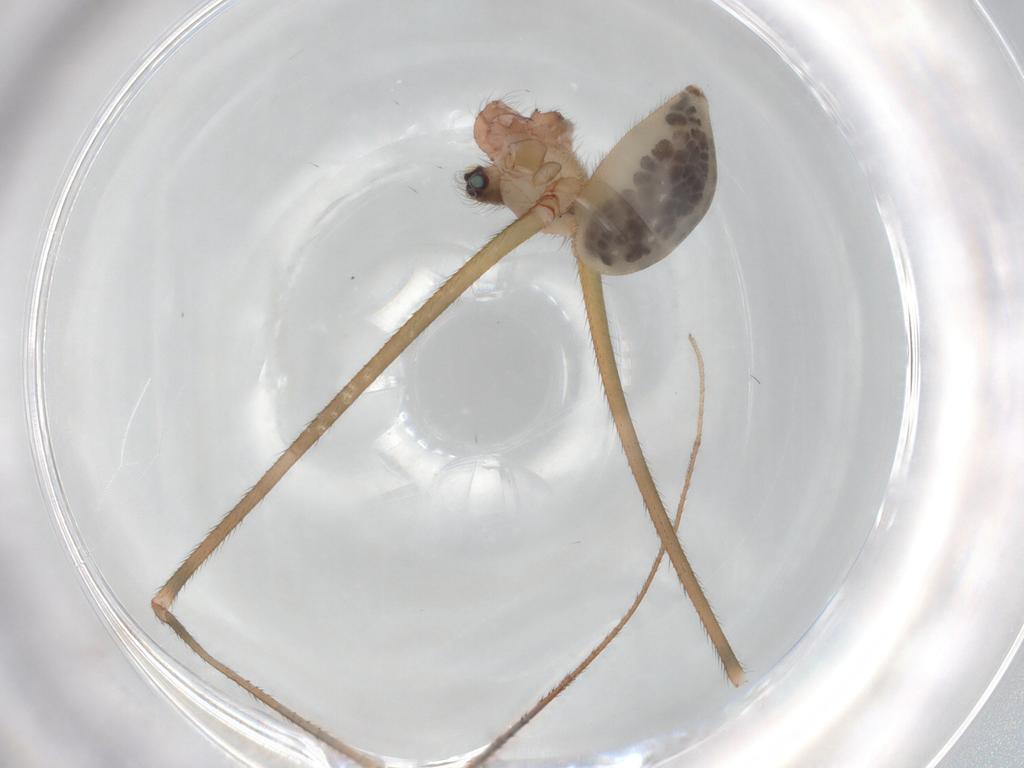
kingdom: Animalia
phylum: Arthropoda
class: Arachnida
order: Araneae
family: Pholcidae
